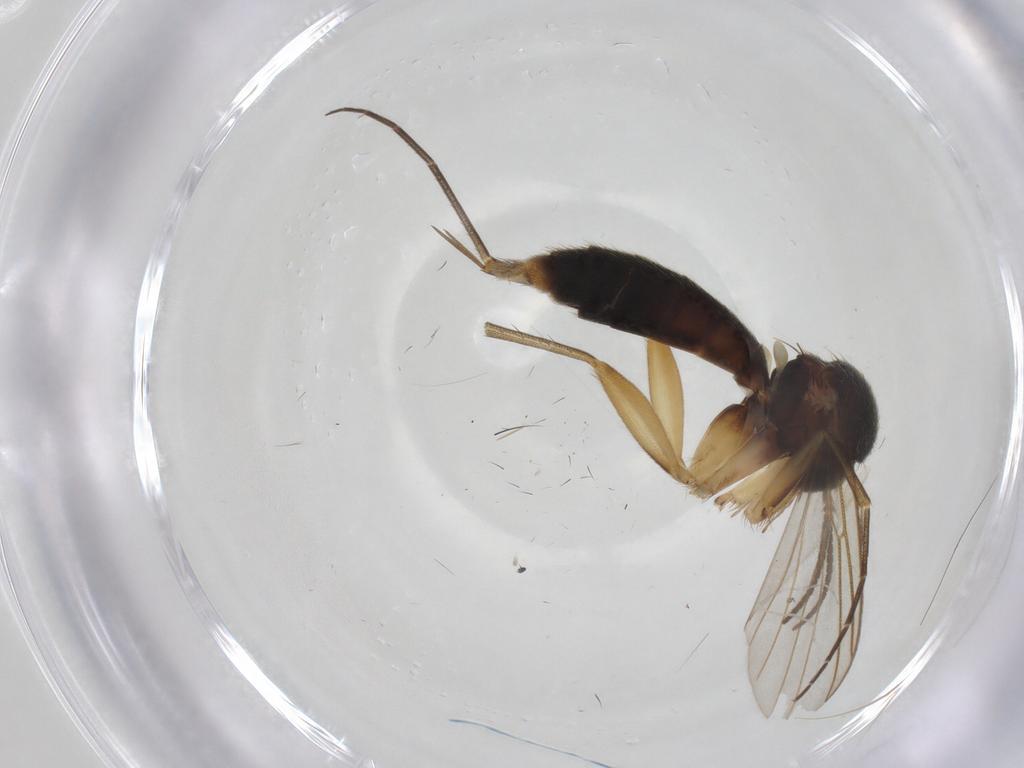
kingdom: Animalia
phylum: Arthropoda
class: Insecta
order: Diptera
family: Mycetophilidae
